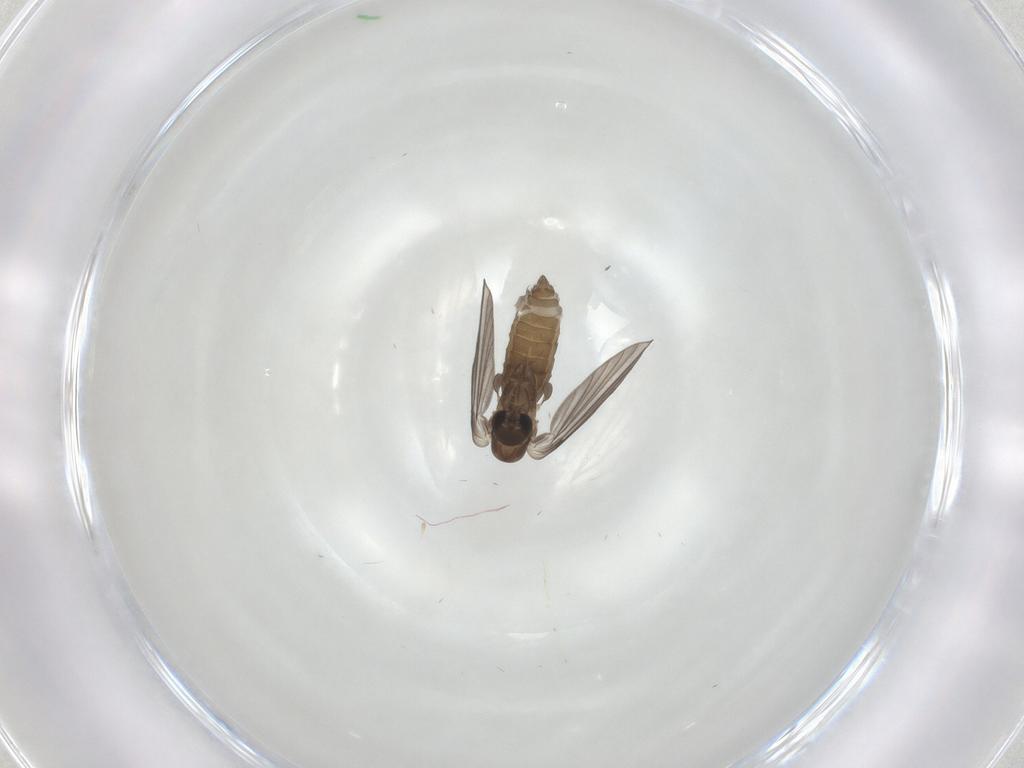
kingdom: Animalia
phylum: Arthropoda
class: Insecta
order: Diptera
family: Psychodidae
